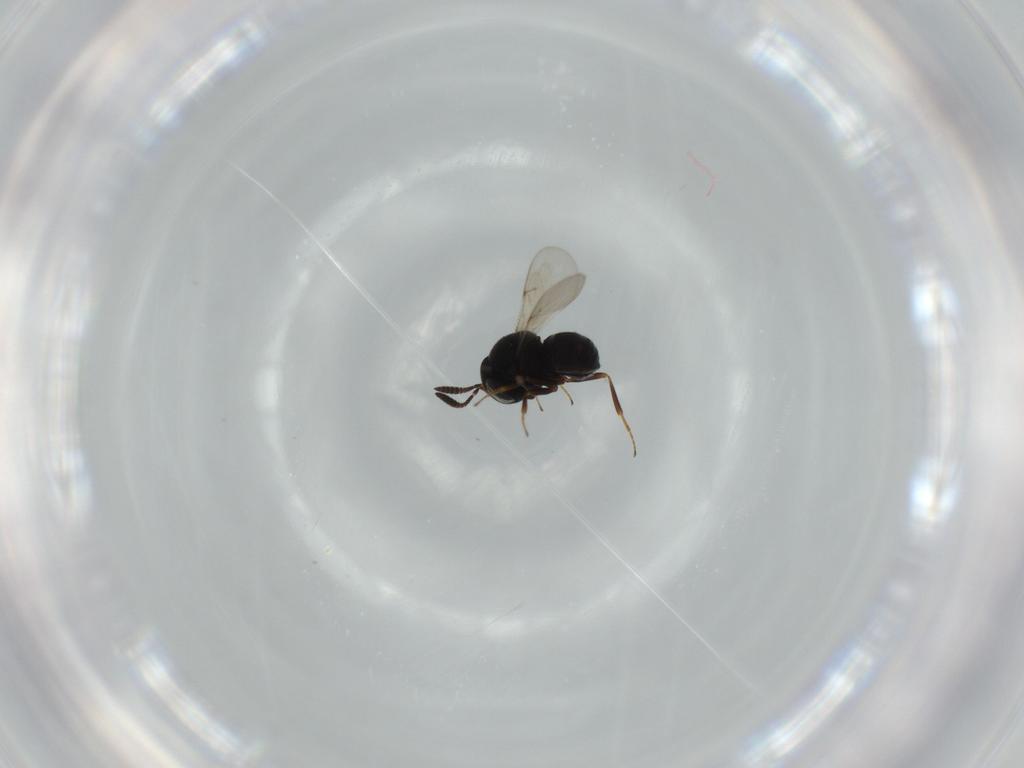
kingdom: Animalia
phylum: Arthropoda
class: Insecta
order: Hymenoptera
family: Scelionidae
